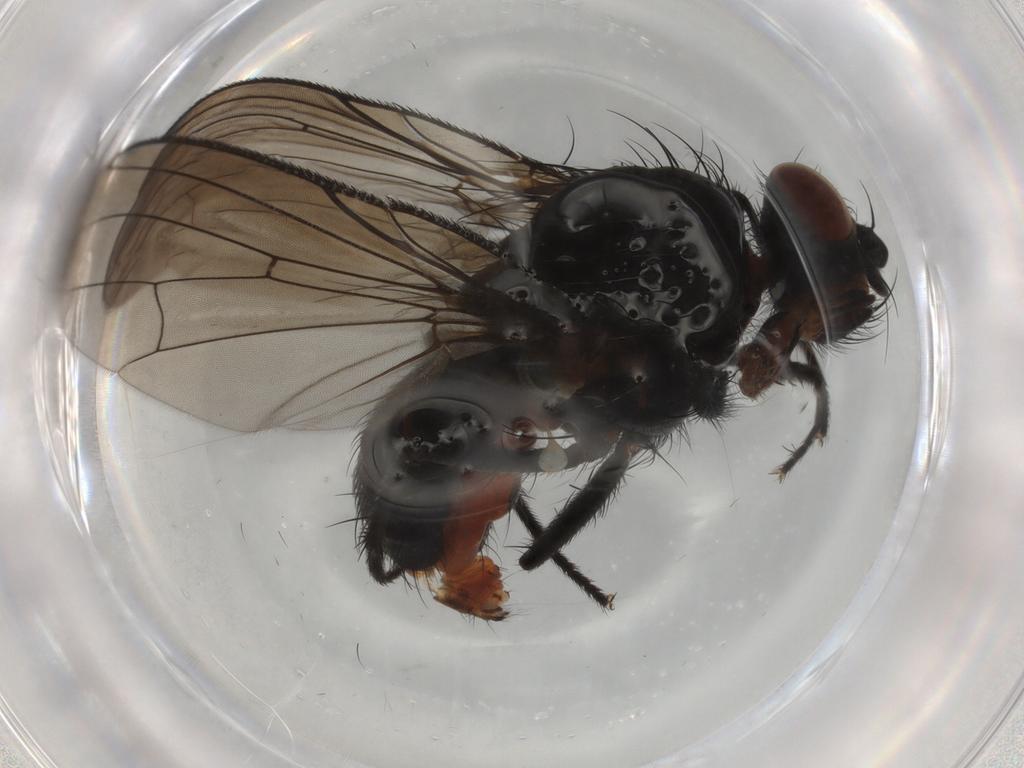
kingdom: Animalia
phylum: Arthropoda
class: Insecta
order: Diptera
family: Anthomyiidae
